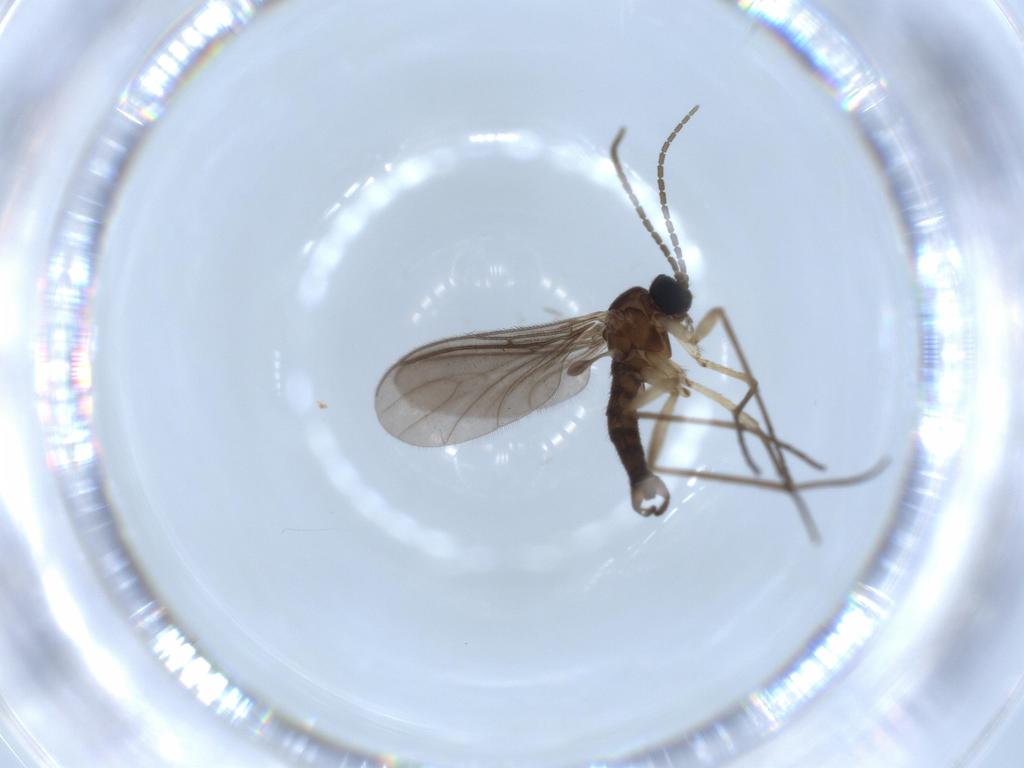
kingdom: Animalia
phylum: Arthropoda
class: Insecta
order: Diptera
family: Sciaridae
